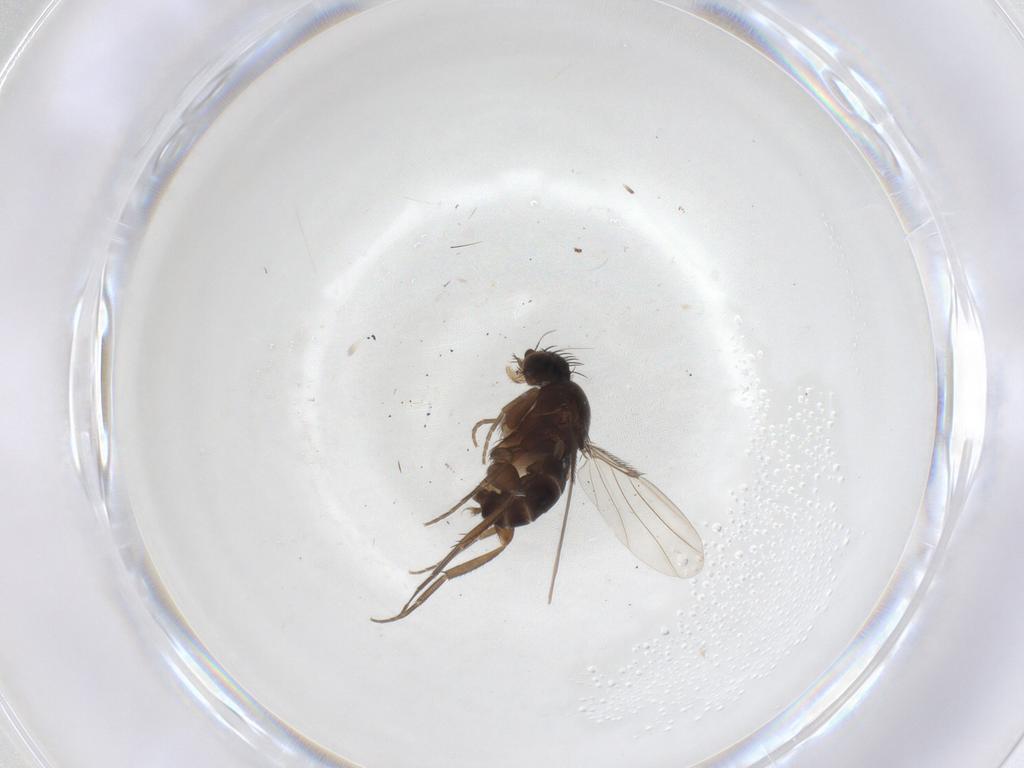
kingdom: Animalia
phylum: Arthropoda
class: Insecta
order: Diptera
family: Phoridae
